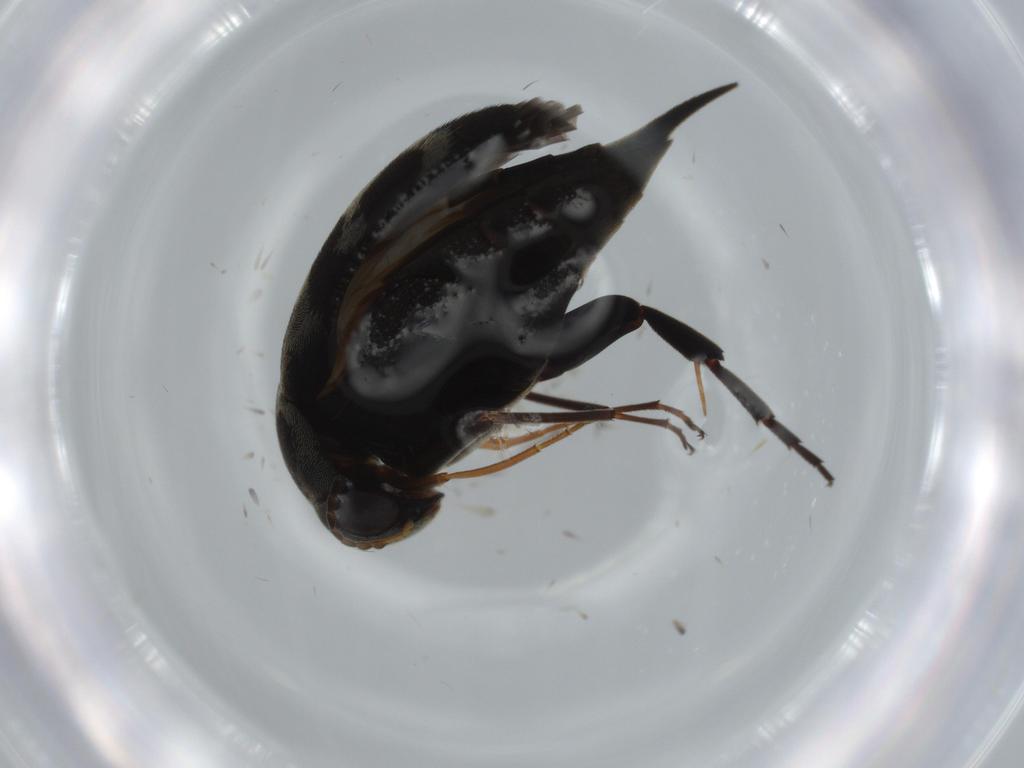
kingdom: Animalia
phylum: Arthropoda
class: Insecta
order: Coleoptera
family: Mordellidae
